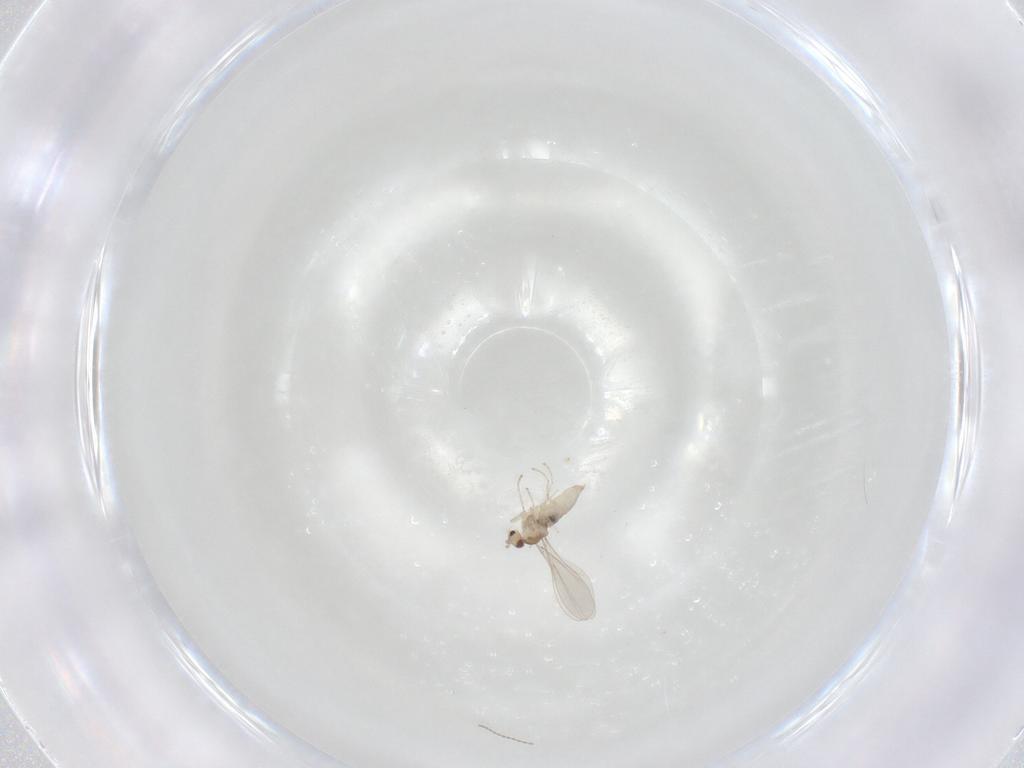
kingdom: Animalia
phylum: Arthropoda
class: Insecta
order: Diptera
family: Cecidomyiidae
